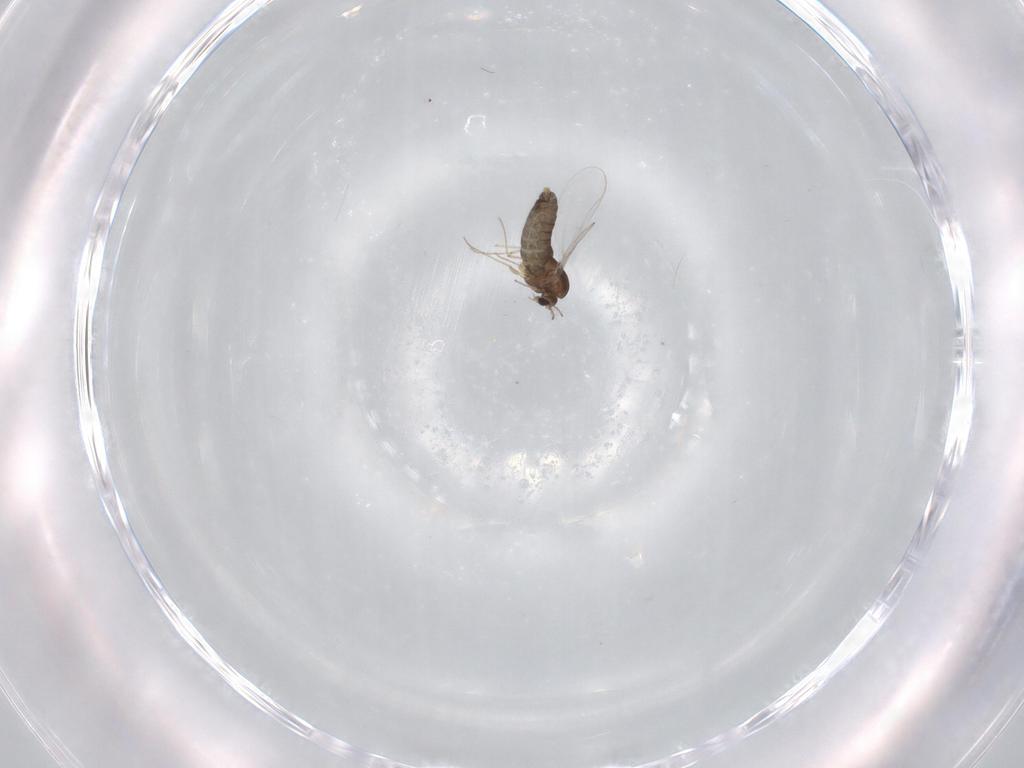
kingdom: Animalia
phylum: Arthropoda
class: Insecta
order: Diptera
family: Chironomidae
